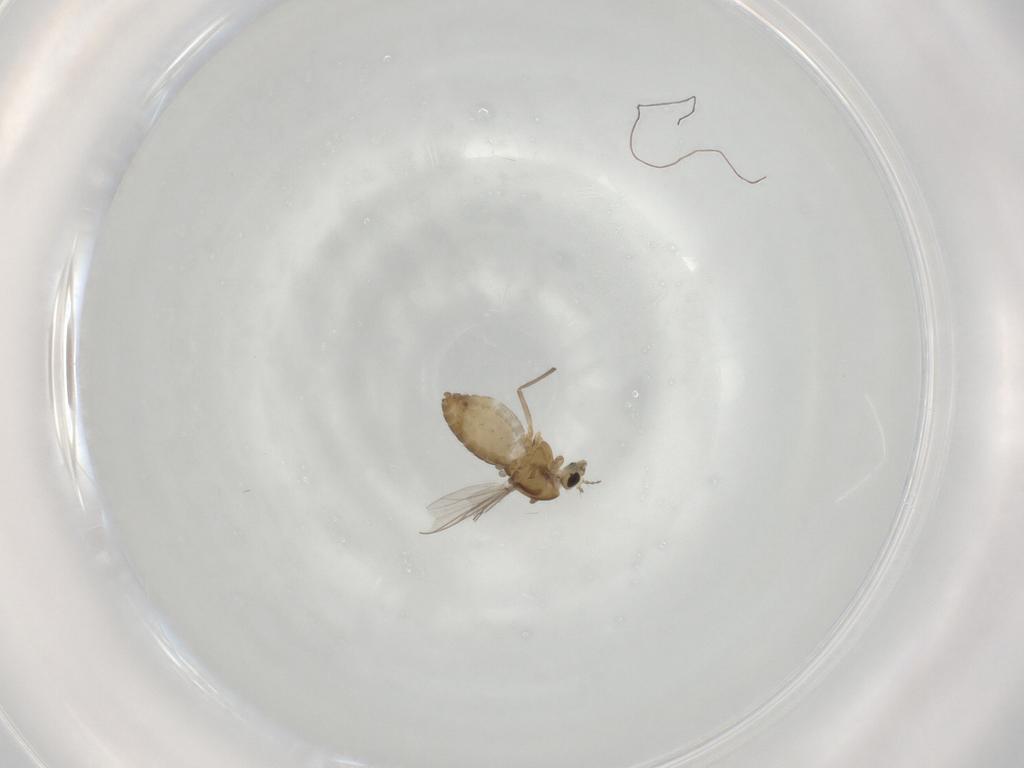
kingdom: Animalia
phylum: Arthropoda
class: Insecta
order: Diptera
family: Chironomidae
